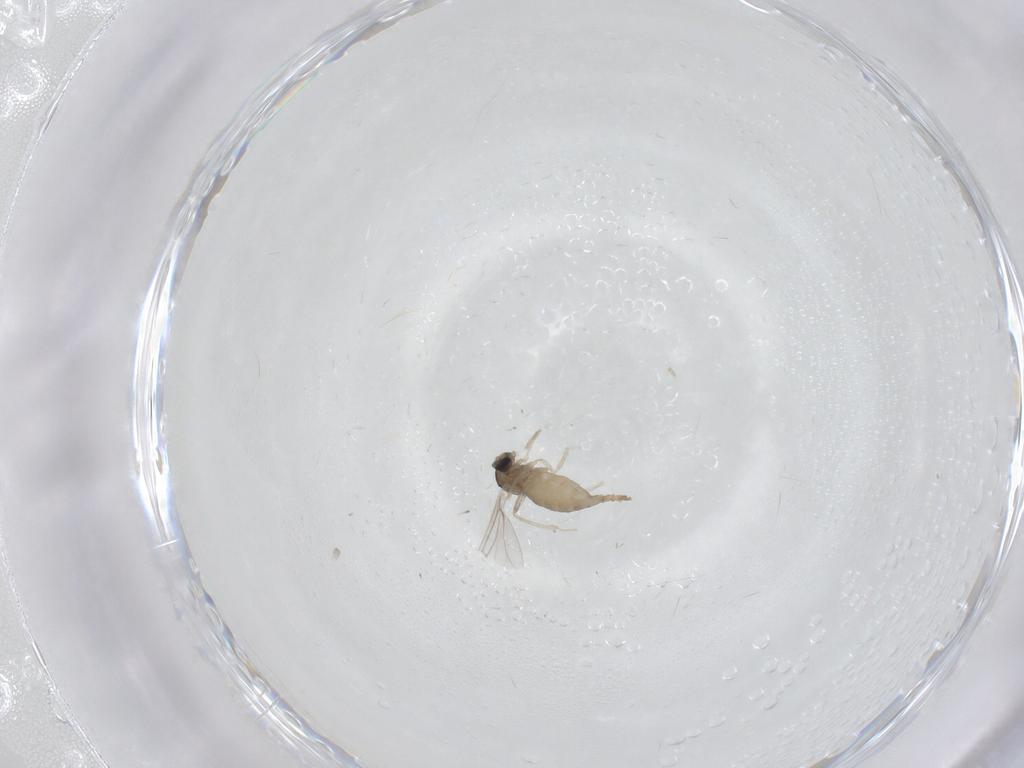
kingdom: Animalia
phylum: Arthropoda
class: Insecta
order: Diptera
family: Cecidomyiidae
